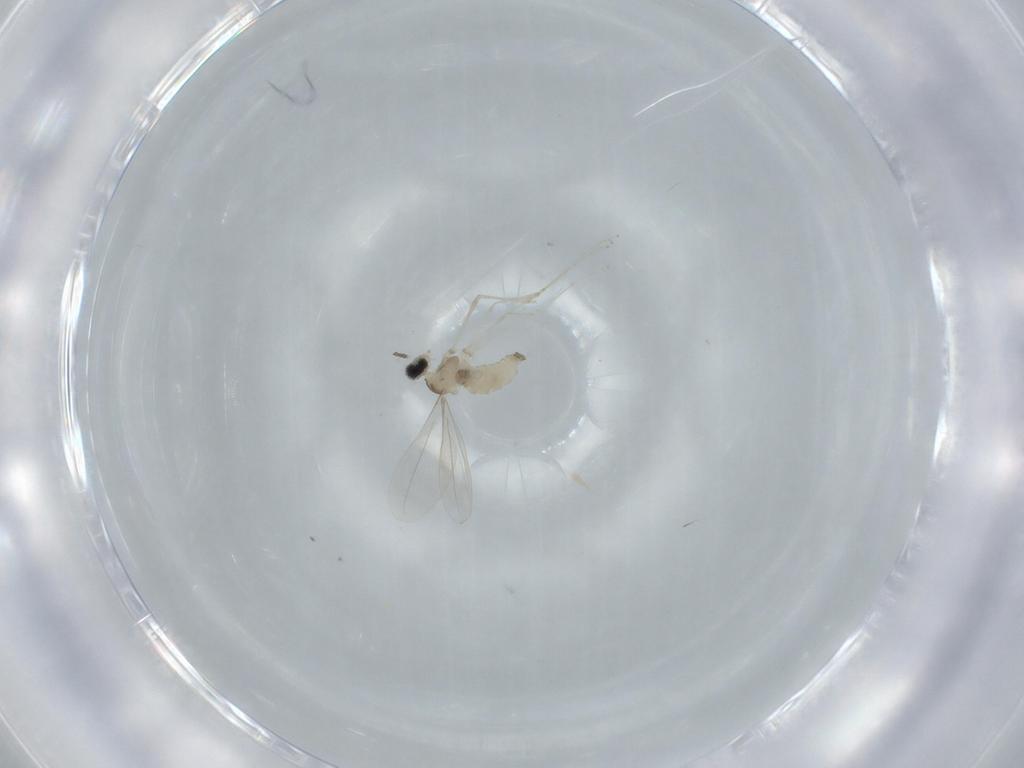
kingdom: Animalia
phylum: Arthropoda
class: Insecta
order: Diptera
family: Cecidomyiidae
